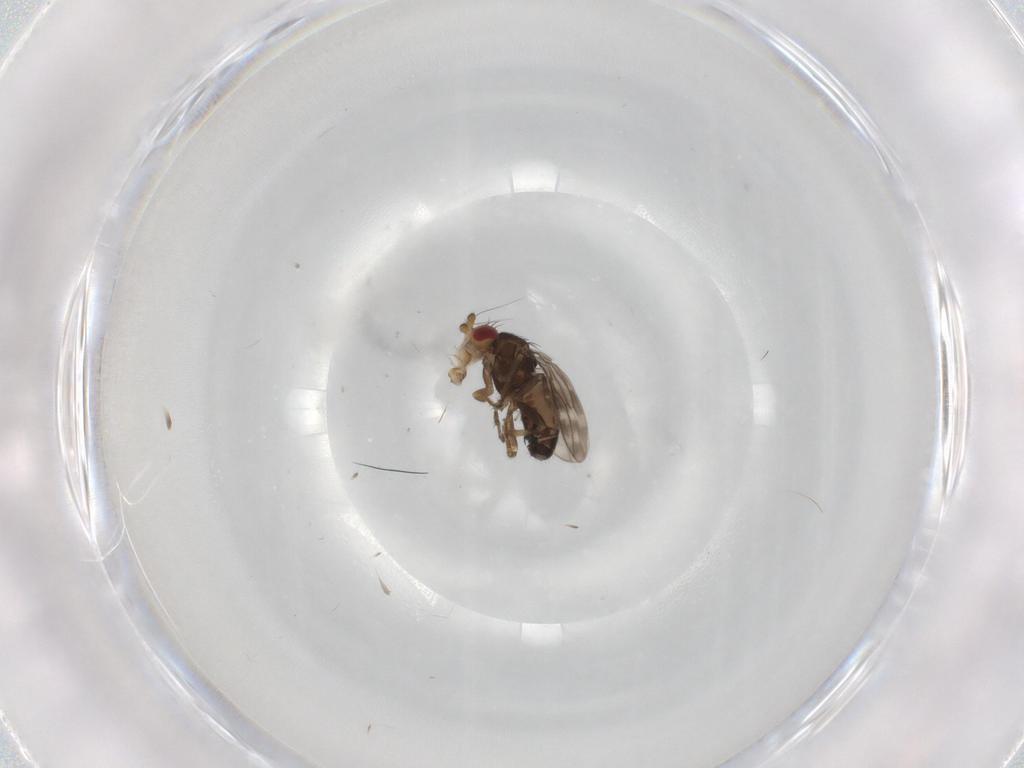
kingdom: Animalia
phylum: Arthropoda
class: Insecta
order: Diptera
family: Sphaeroceridae
